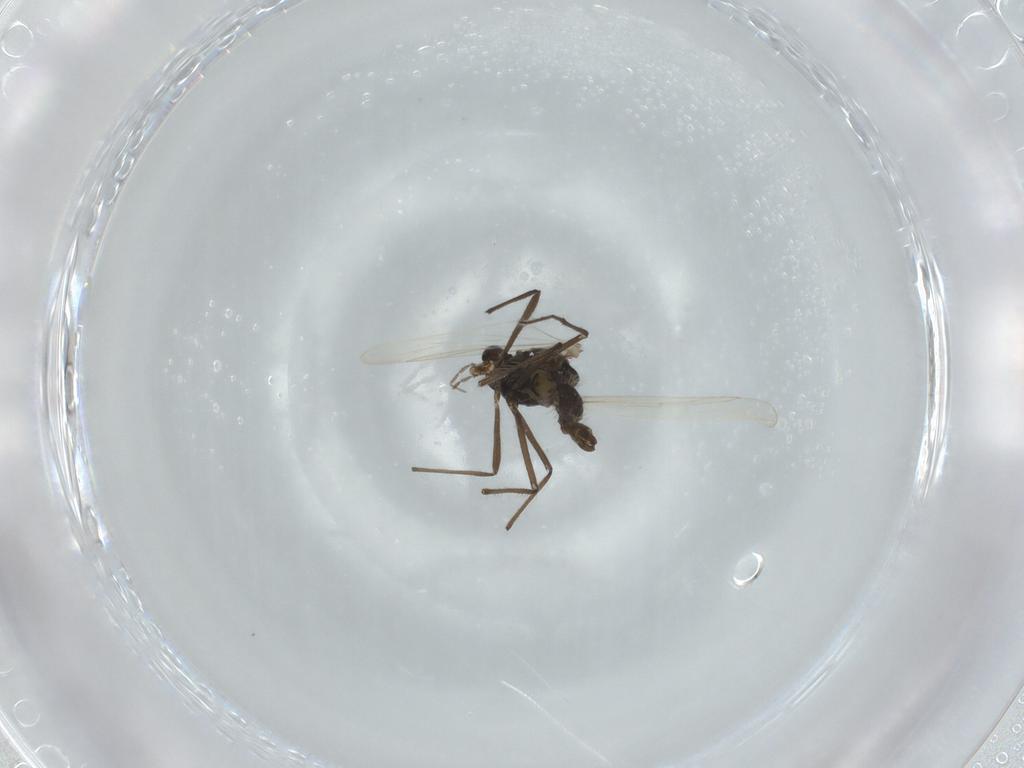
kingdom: Animalia
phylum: Arthropoda
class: Insecta
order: Diptera
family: Chironomidae
